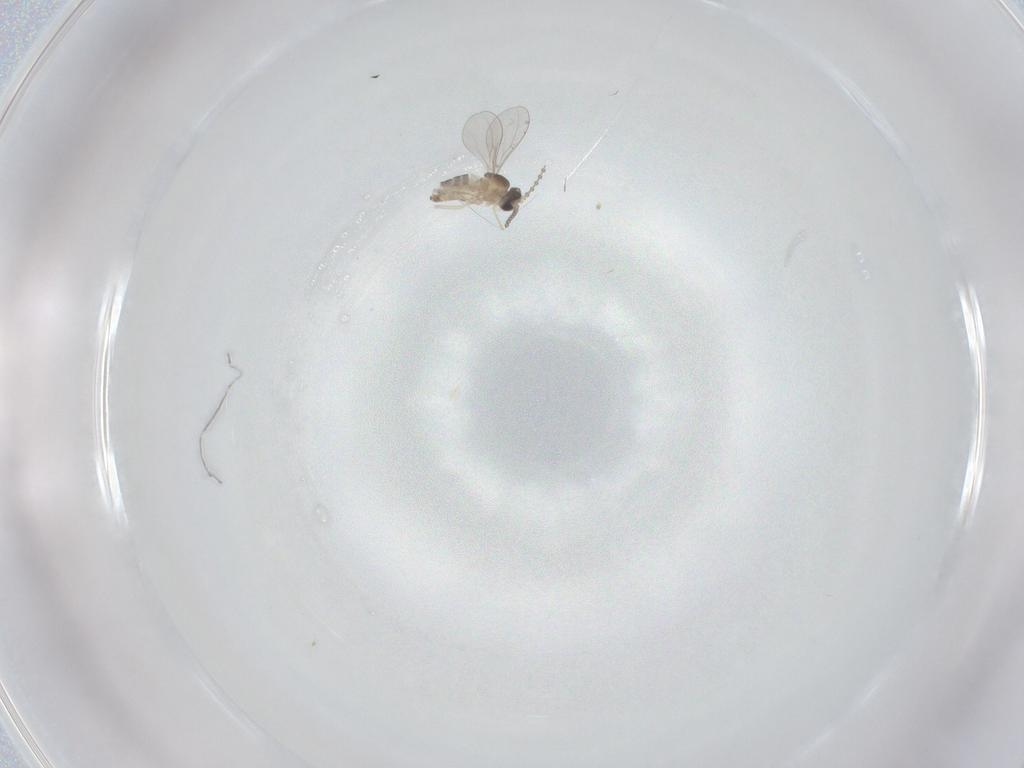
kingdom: Animalia
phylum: Arthropoda
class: Insecta
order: Diptera
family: Cecidomyiidae
